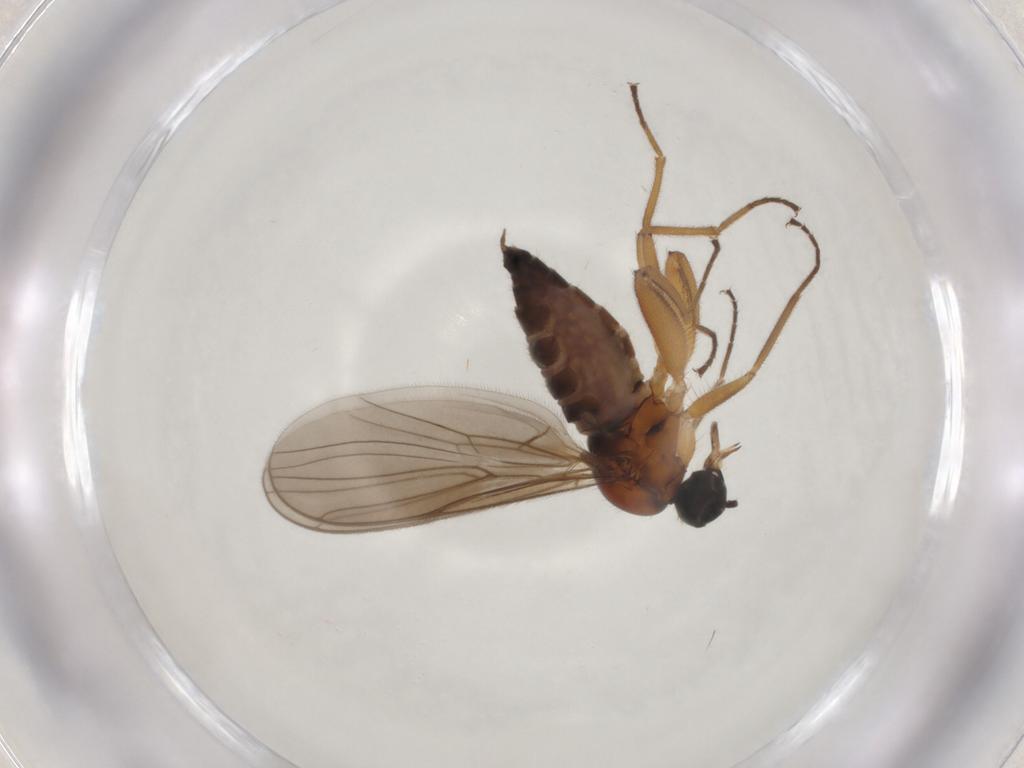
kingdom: Animalia
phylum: Arthropoda
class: Insecta
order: Diptera
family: Hybotidae
